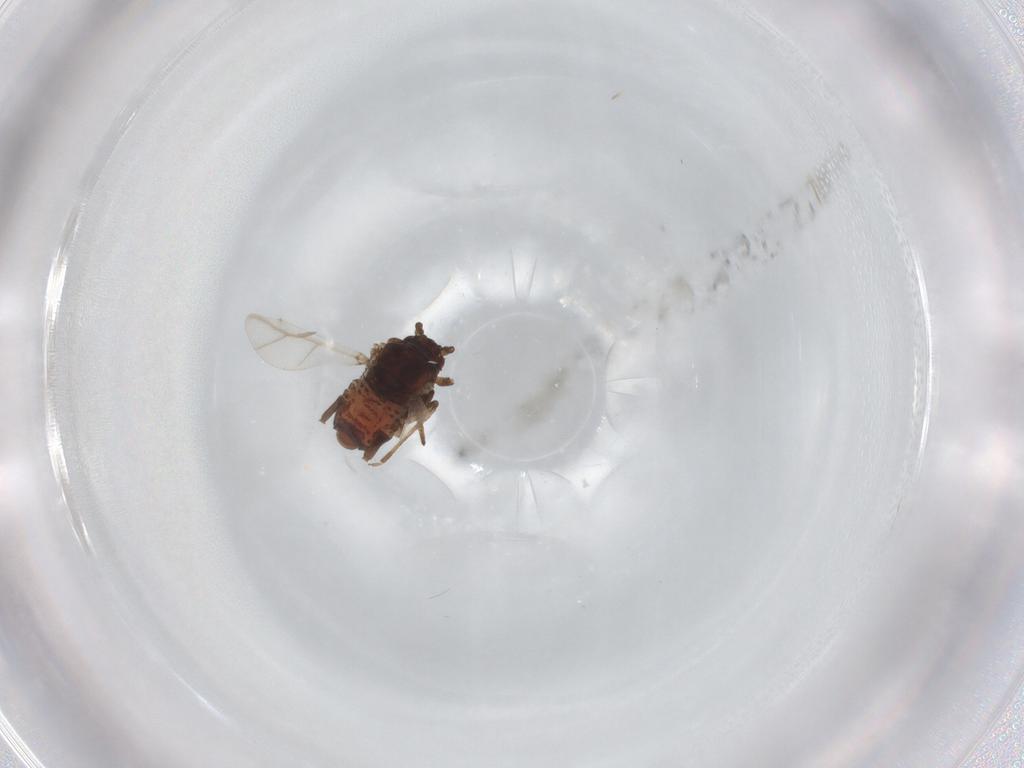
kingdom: Animalia
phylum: Arthropoda
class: Insecta
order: Hemiptera
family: Aphididae
